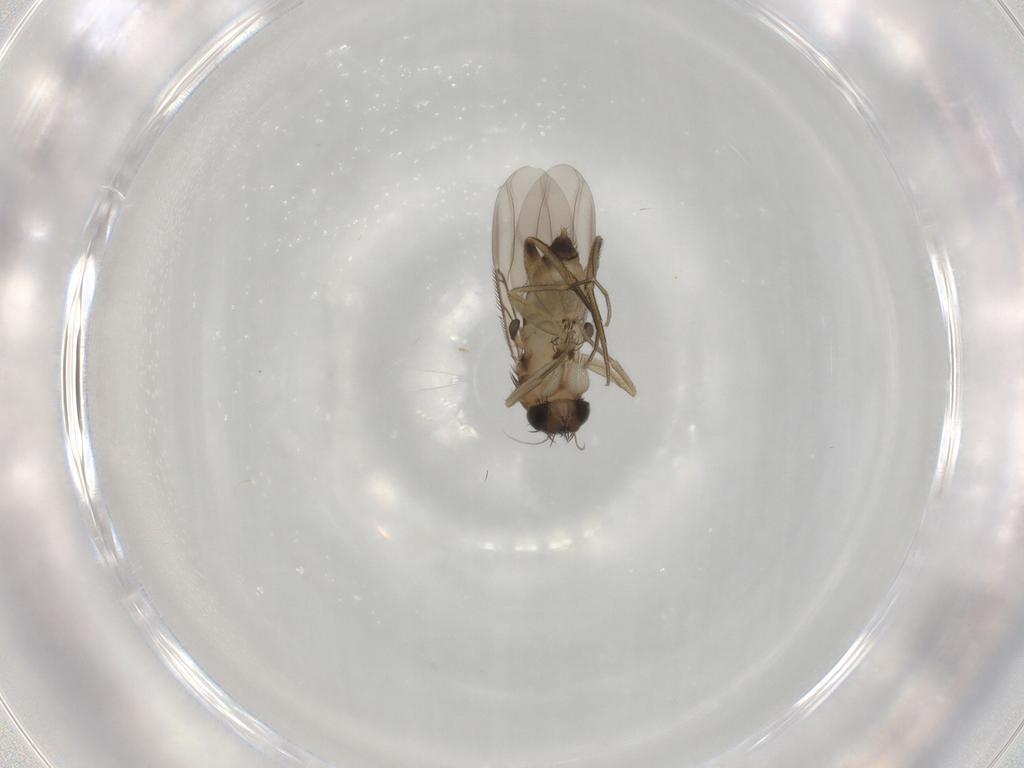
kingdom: Animalia
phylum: Arthropoda
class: Insecta
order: Diptera
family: Phoridae
